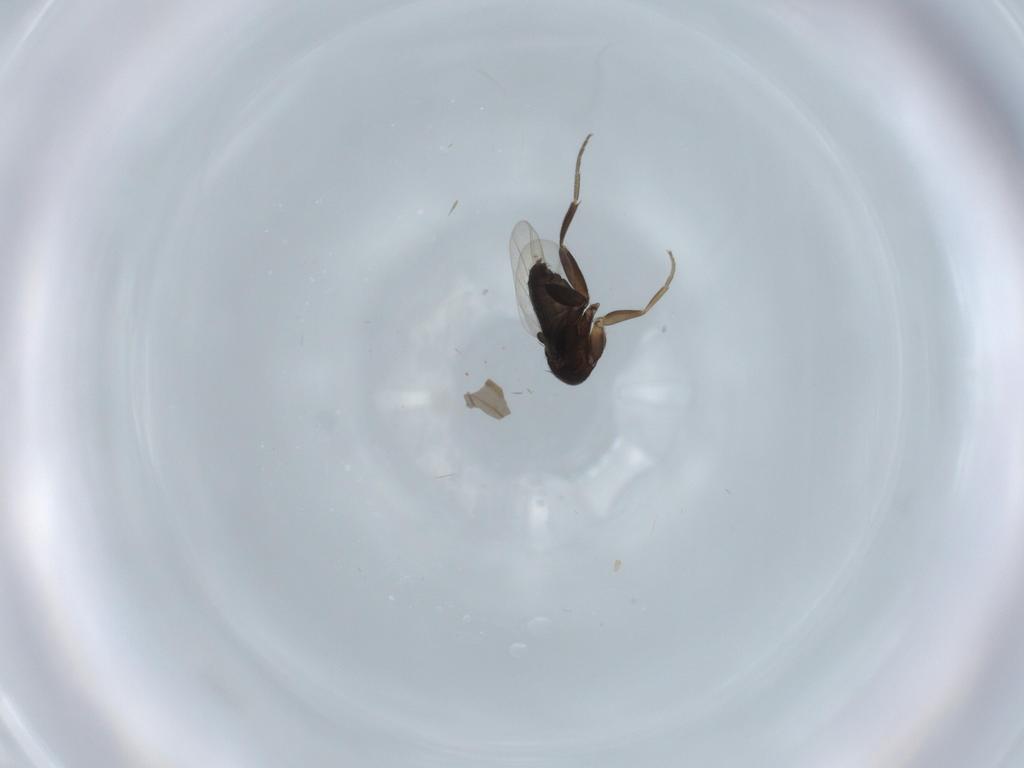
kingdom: Animalia
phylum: Arthropoda
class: Insecta
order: Diptera
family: Phoridae
